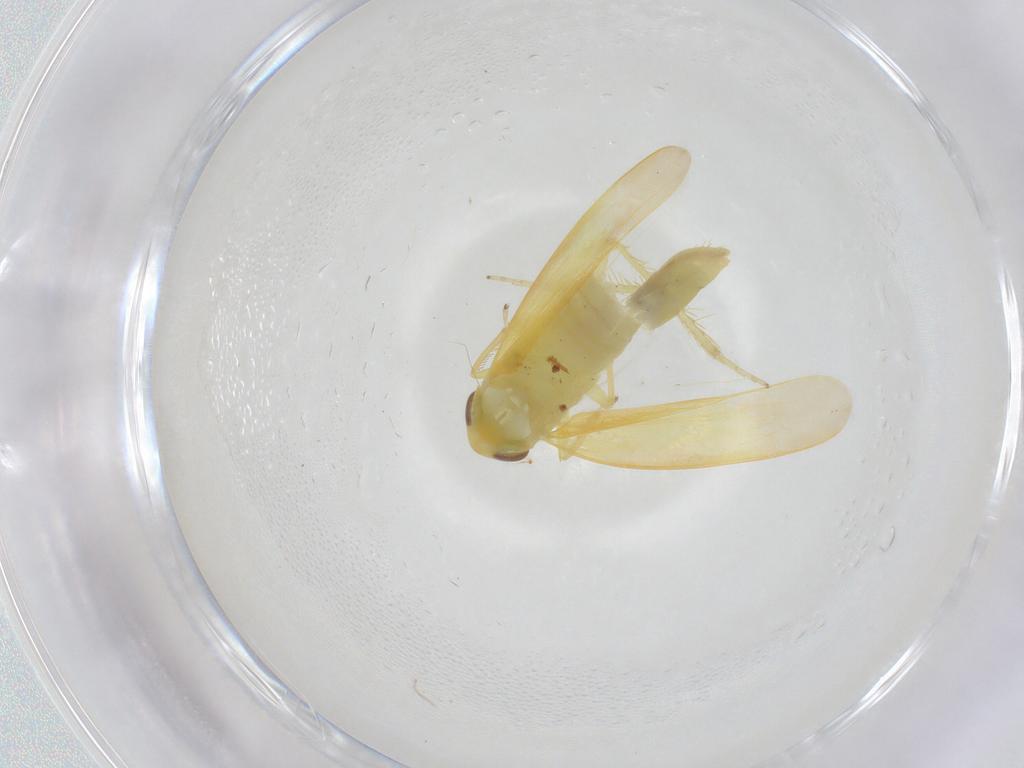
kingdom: Animalia
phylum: Arthropoda
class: Insecta
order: Hemiptera
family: Cicadellidae
